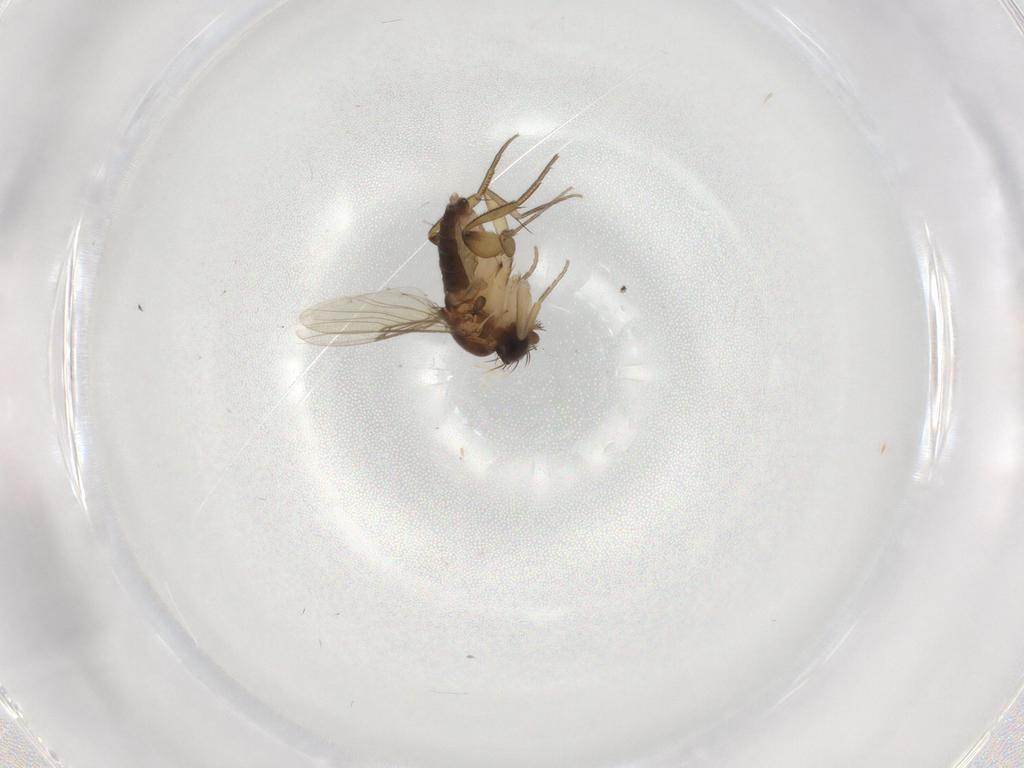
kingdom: Animalia
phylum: Arthropoda
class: Insecta
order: Diptera
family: Phoridae
